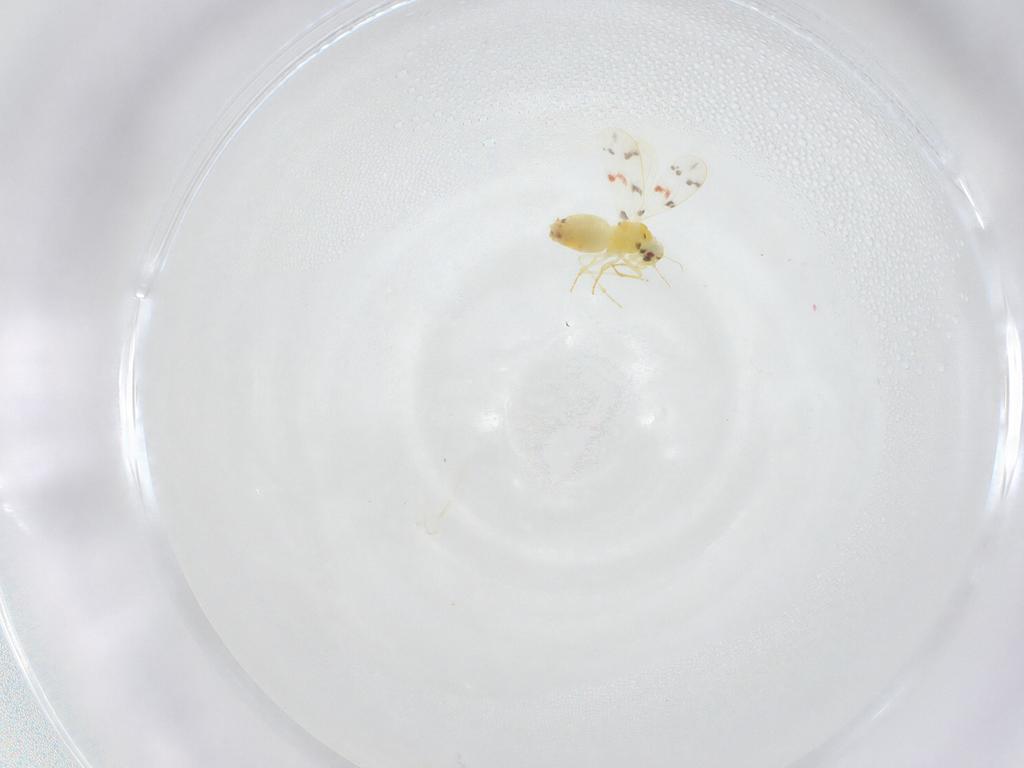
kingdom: Animalia
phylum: Arthropoda
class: Insecta
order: Hemiptera
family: Aleyrodidae
